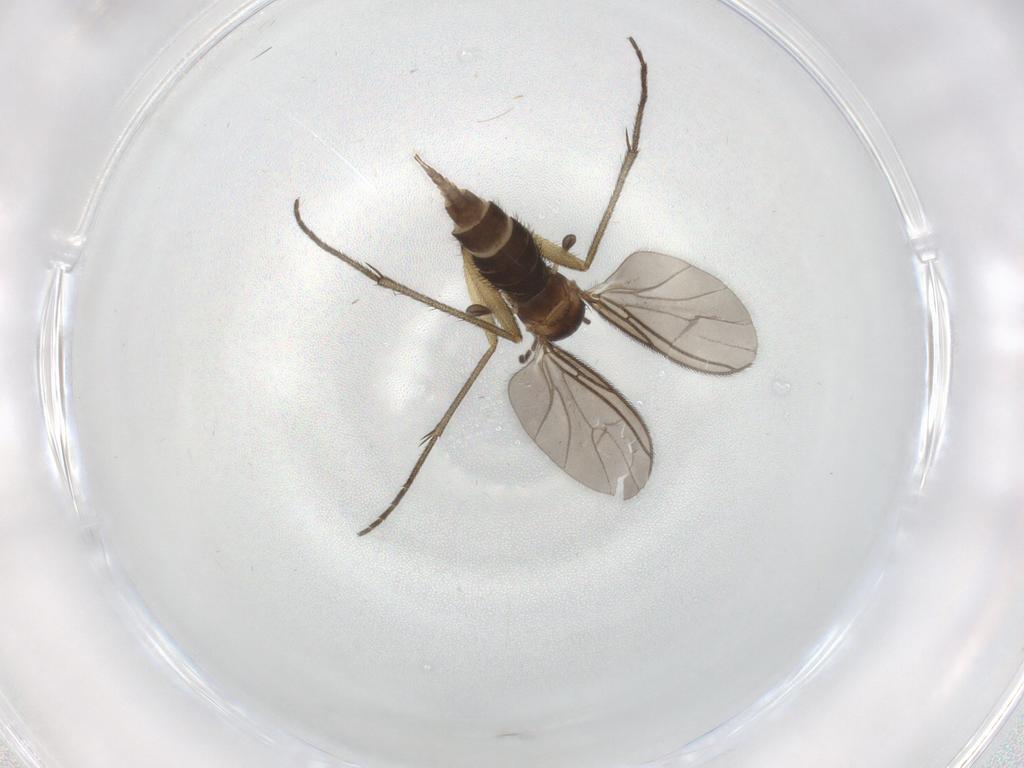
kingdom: Animalia
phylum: Arthropoda
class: Insecta
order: Diptera
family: Sciaridae
